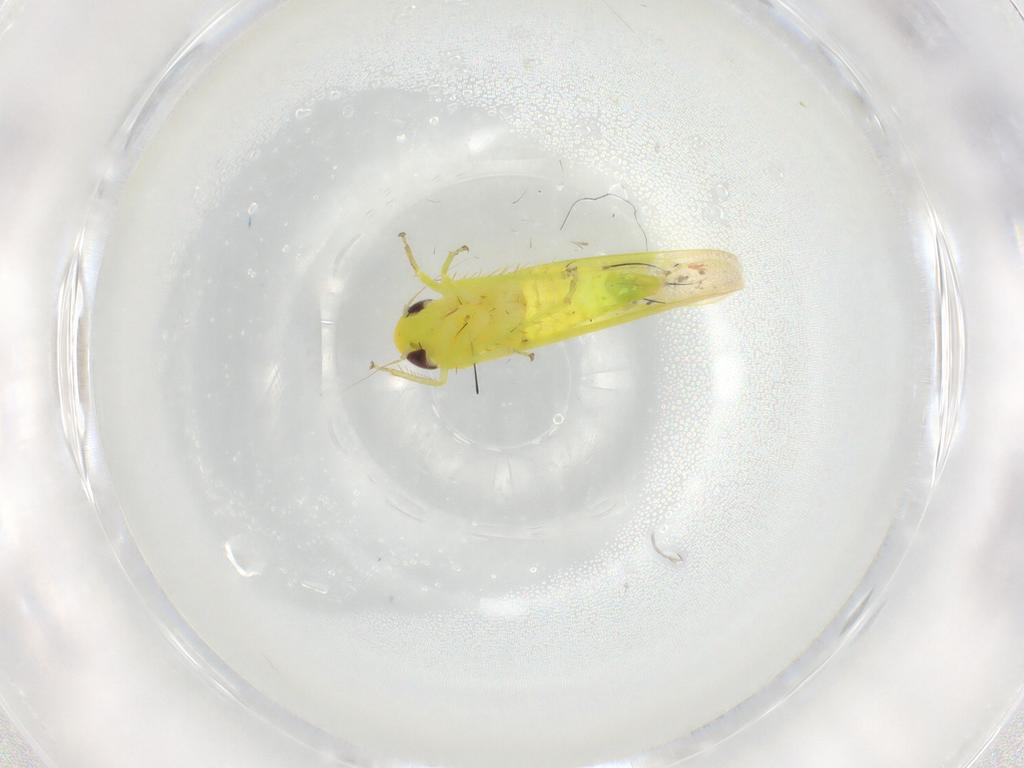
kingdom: Animalia
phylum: Arthropoda
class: Insecta
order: Hemiptera
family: Cicadellidae
